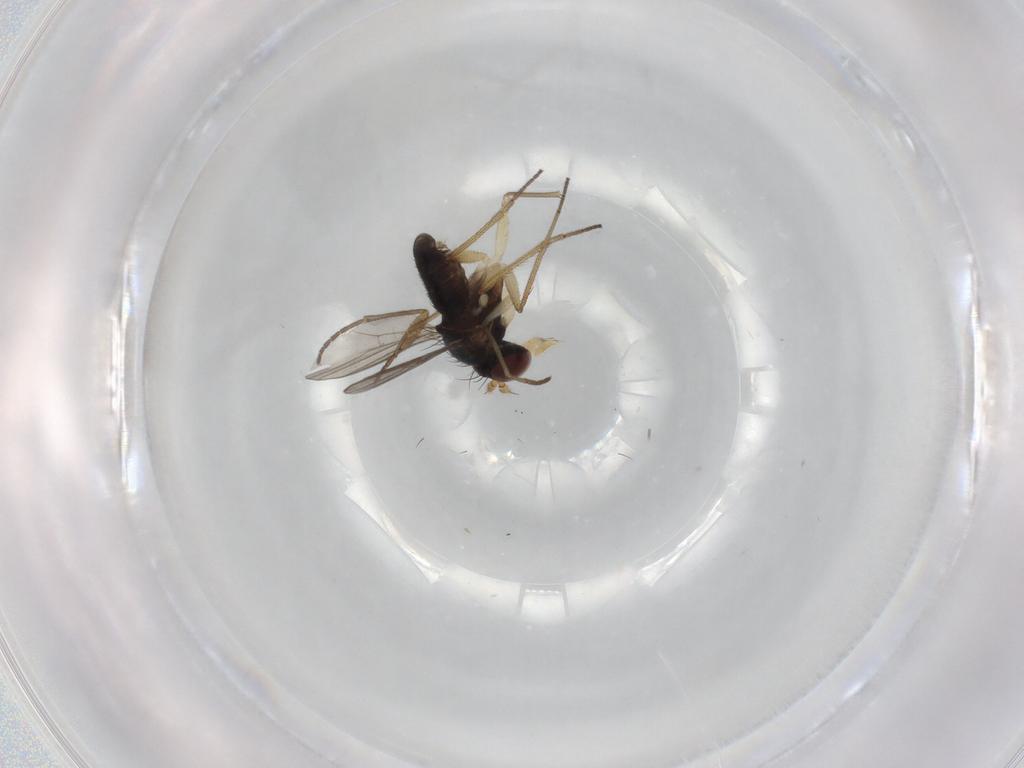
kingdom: Animalia
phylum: Arthropoda
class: Insecta
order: Diptera
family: Dolichopodidae
